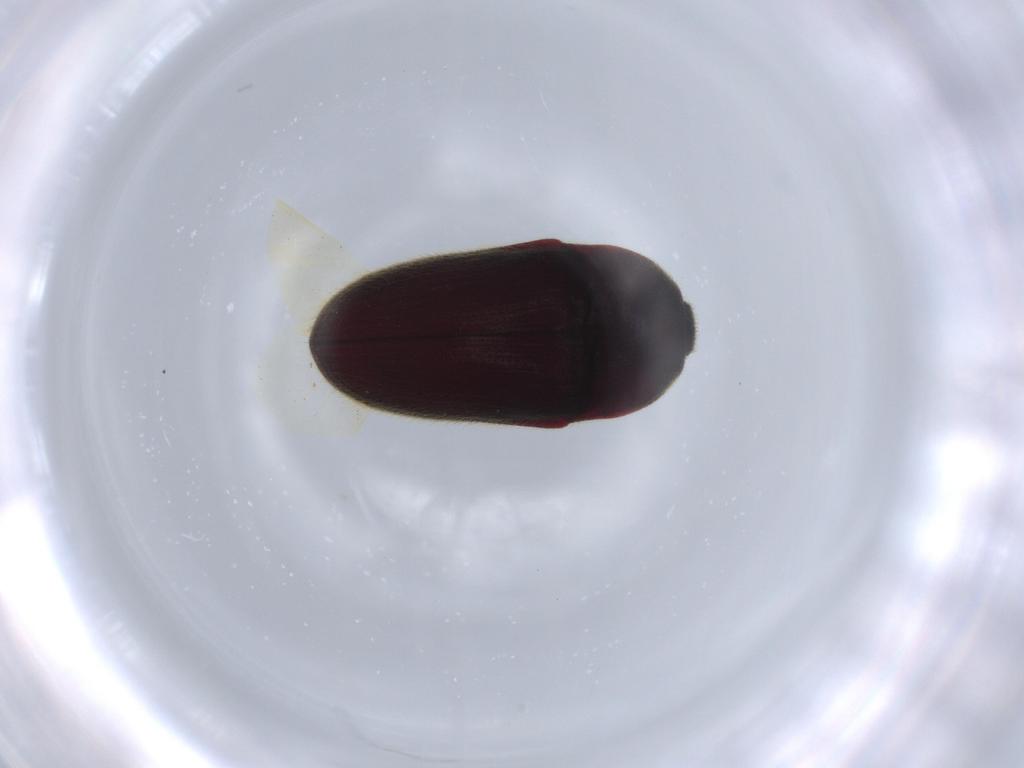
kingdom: Animalia
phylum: Arthropoda
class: Insecta
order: Coleoptera
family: Throscidae
